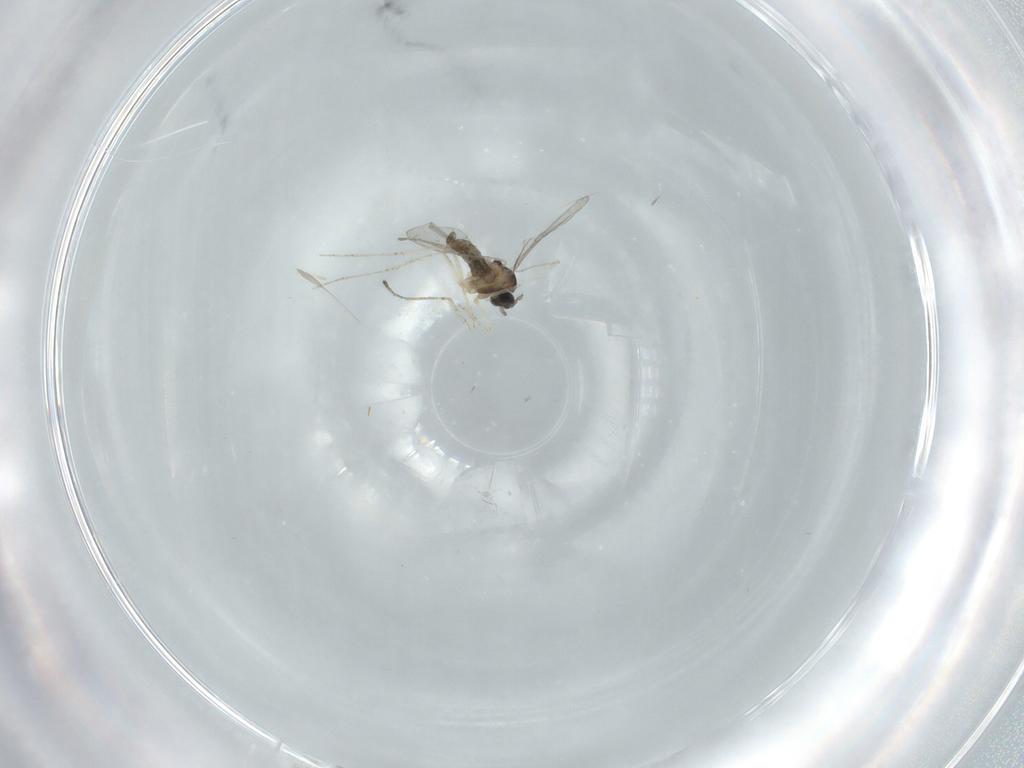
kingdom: Animalia
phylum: Arthropoda
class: Insecta
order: Diptera
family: Cecidomyiidae
